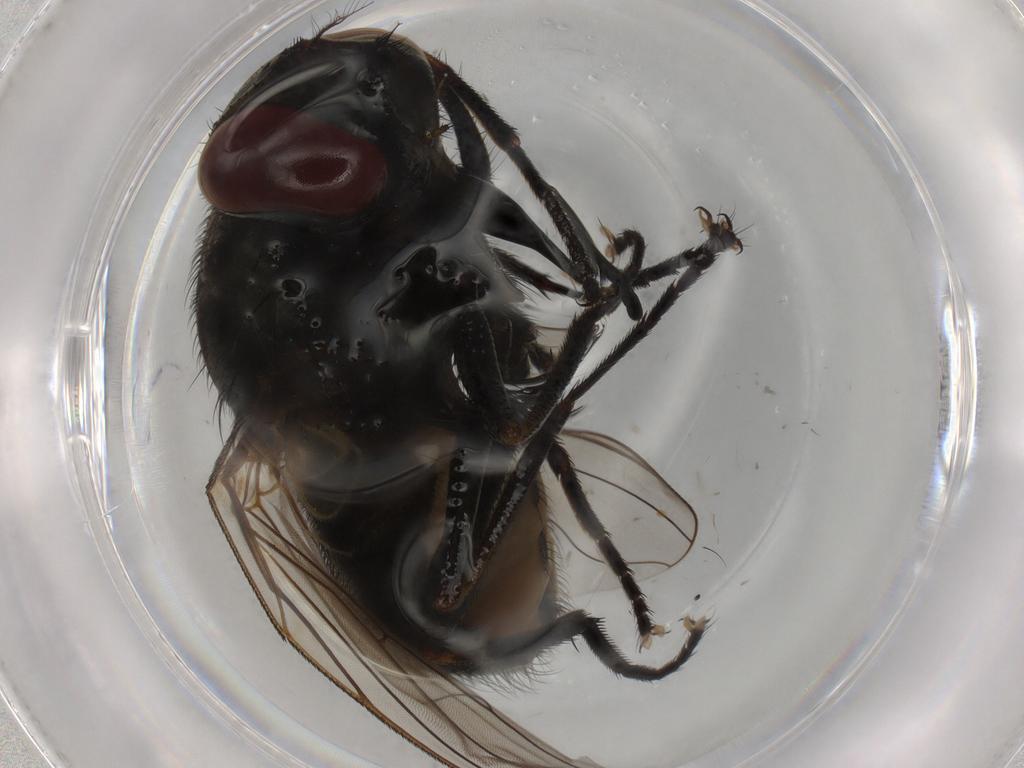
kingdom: Animalia
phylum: Arthropoda
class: Insecta
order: Diptera
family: Muscidae
